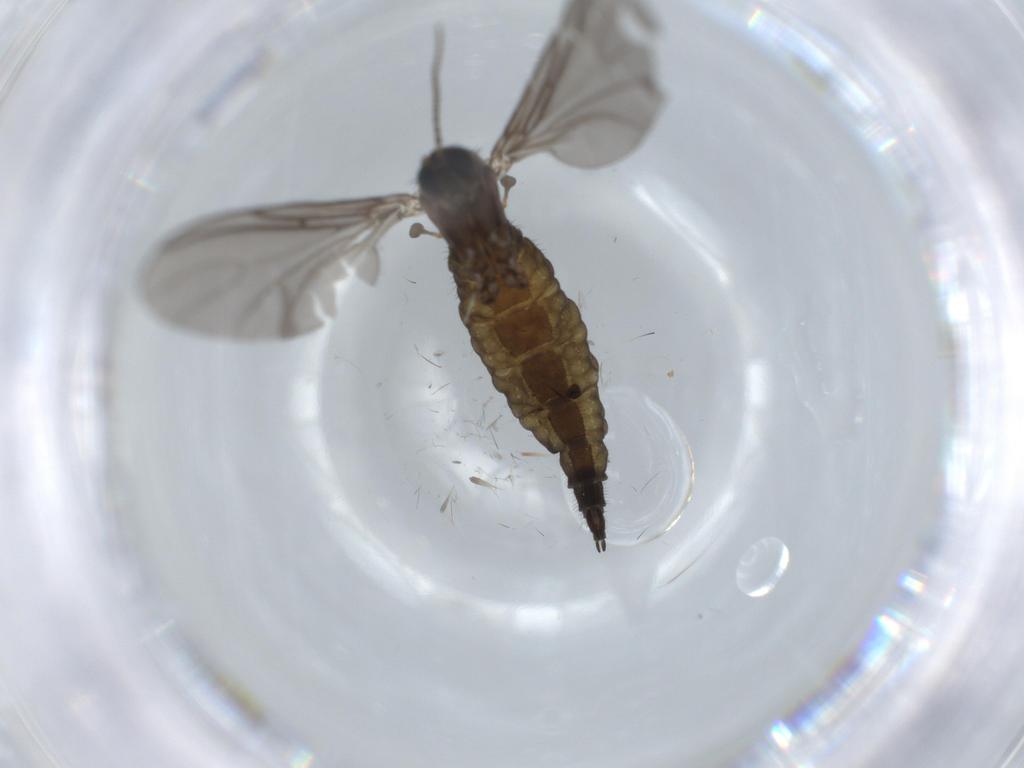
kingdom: Animalia
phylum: Arthropoda
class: Insecta
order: Diptera
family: Sciaridae
